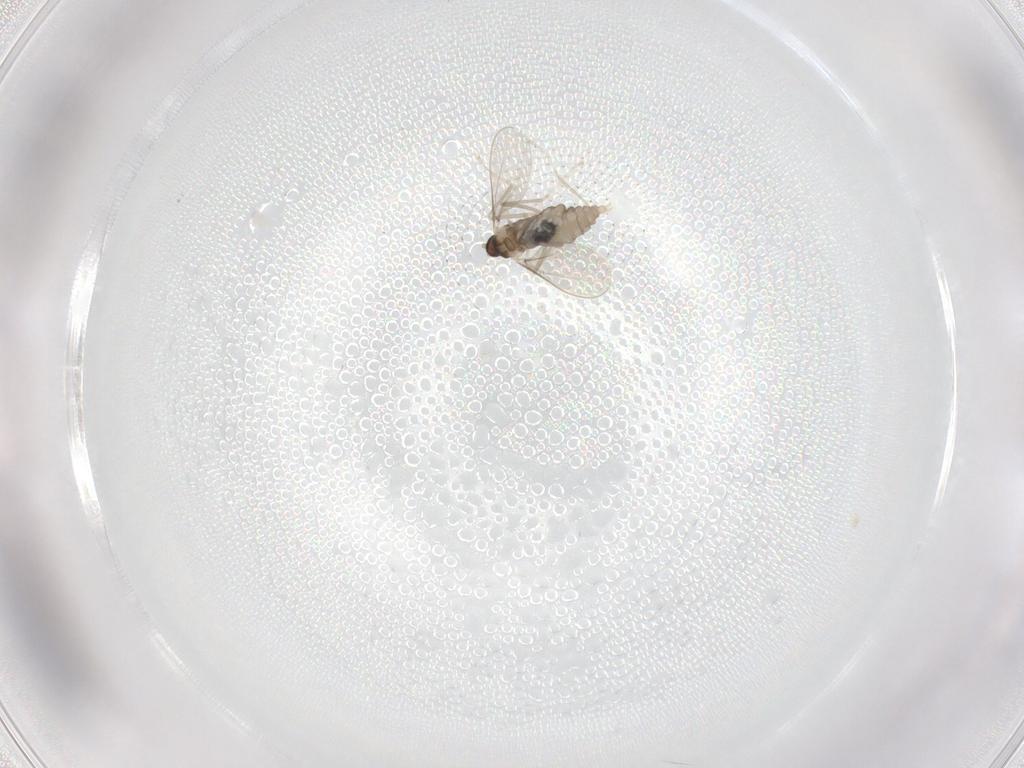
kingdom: Animalia
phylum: Arthropoda
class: Insecta
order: Diptera
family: Cecidomyiidae
